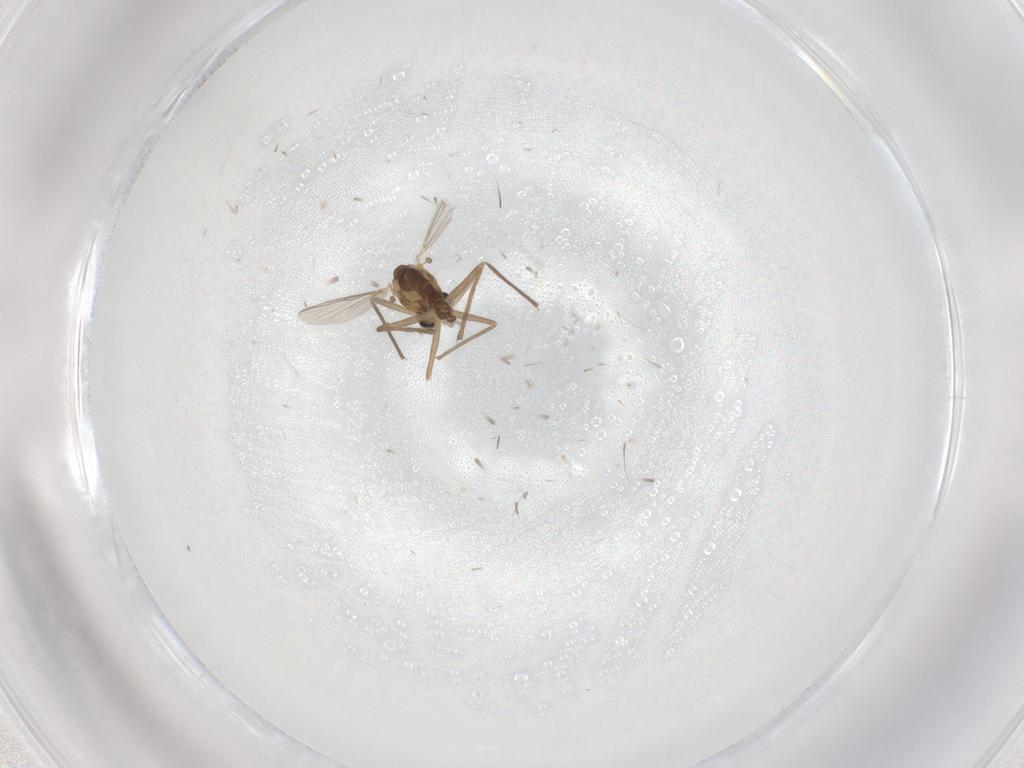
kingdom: Animalia
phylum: Arthropoda
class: Insecta
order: Diptera
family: Chironomidae
